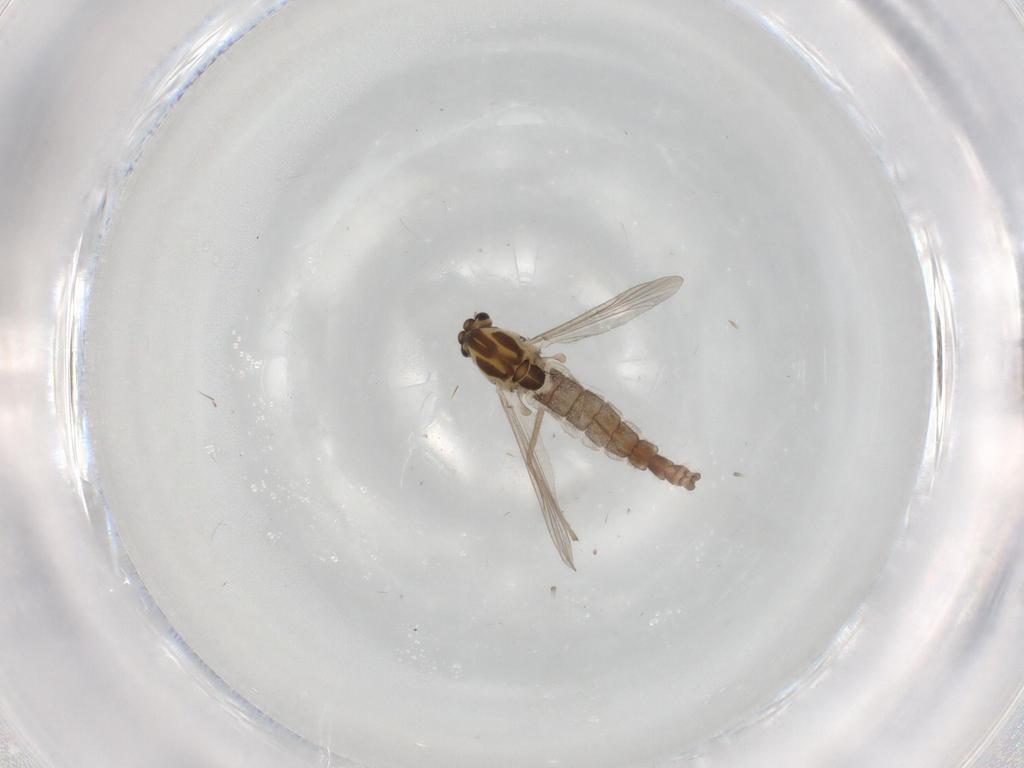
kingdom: Animalia
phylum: Arthropoda
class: Insecta
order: Diptera
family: Chironomidae
